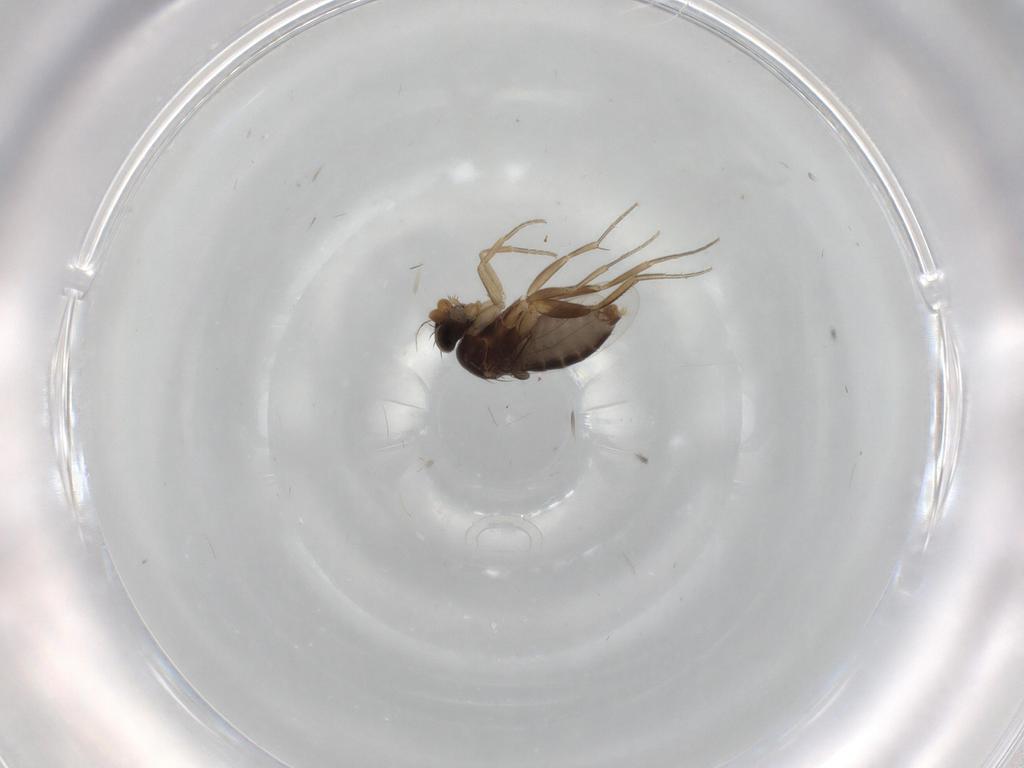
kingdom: Animalia
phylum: Arthropoda
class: Insecta
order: Diptera
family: Phoridae
